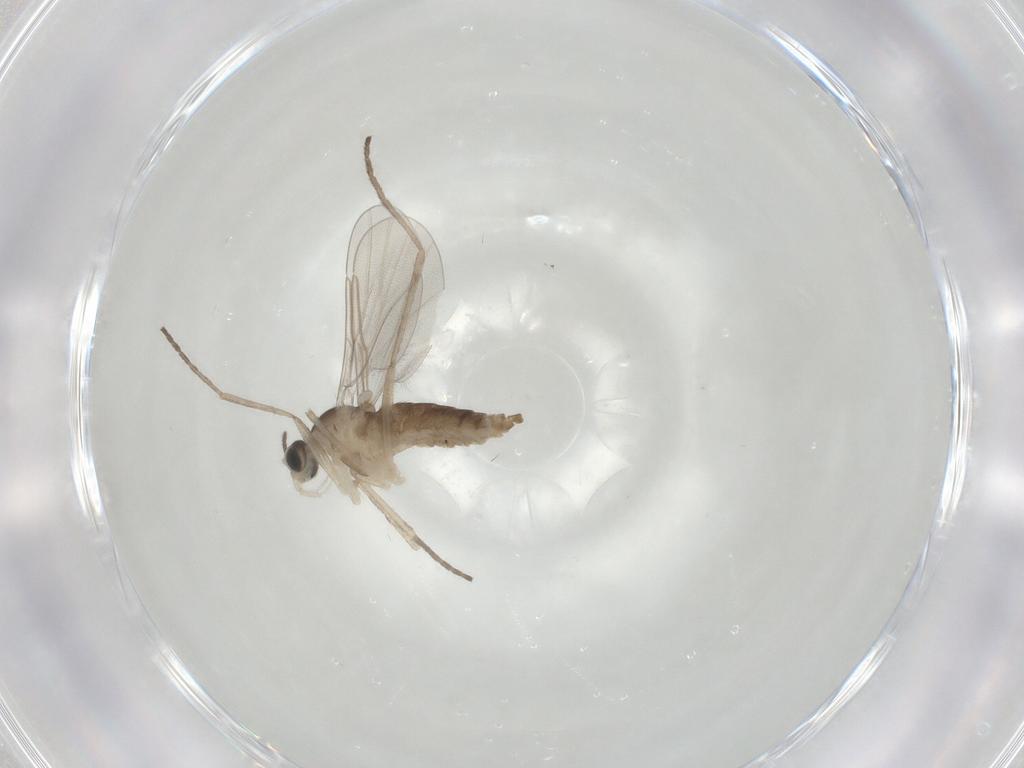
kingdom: Animalia
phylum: Arthropoda
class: Insecta
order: Diptera
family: Cecidomyiidae
